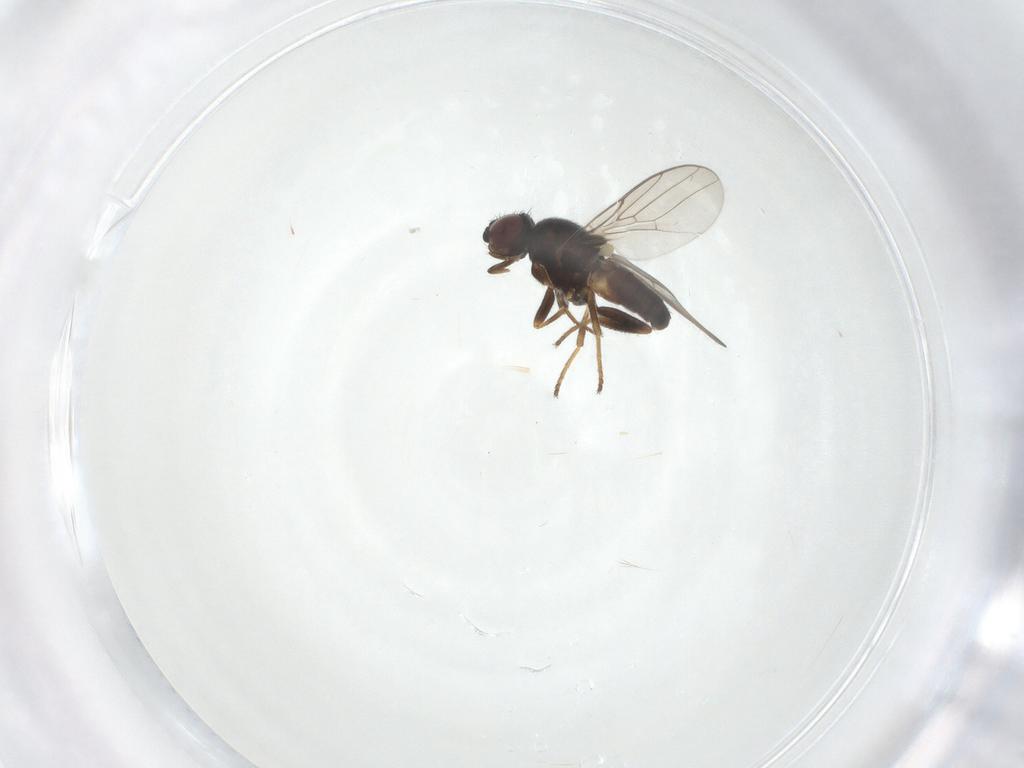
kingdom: Animalia
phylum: Arthropoda
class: Insecta
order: Diptera
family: Chloropidae
